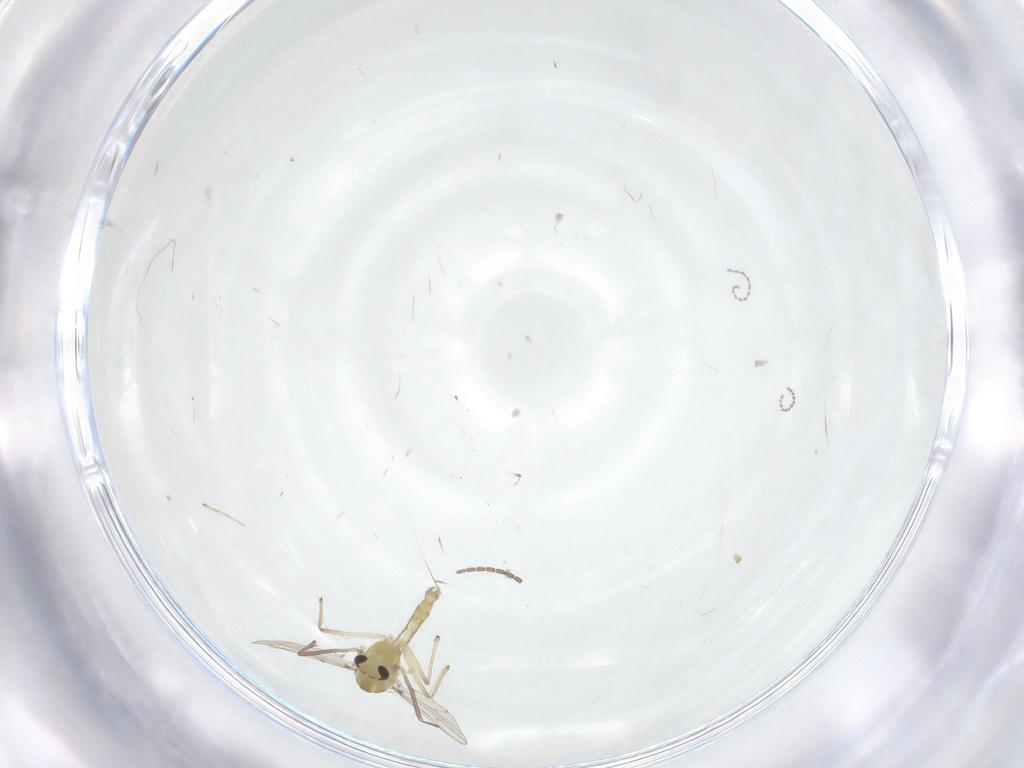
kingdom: Animalia
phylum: Arthropoda
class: Insecta
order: Diptera
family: Chironomidae
